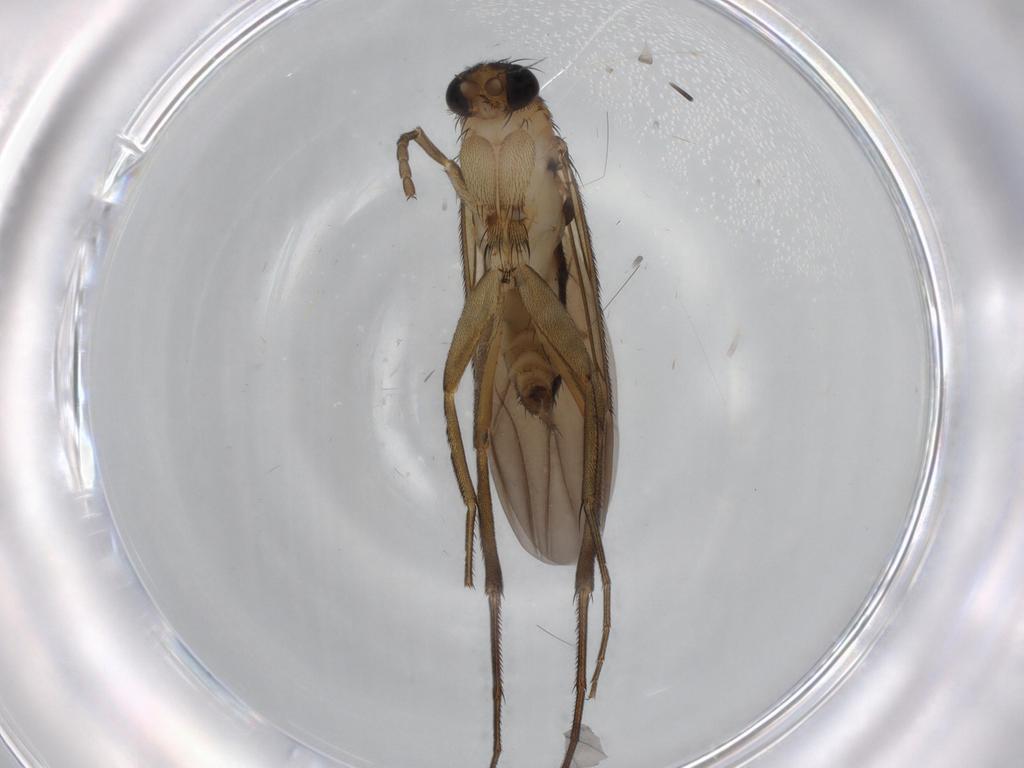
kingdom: Animalia
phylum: Arthropoda
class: Insecta
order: Diptera
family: Phoridae
